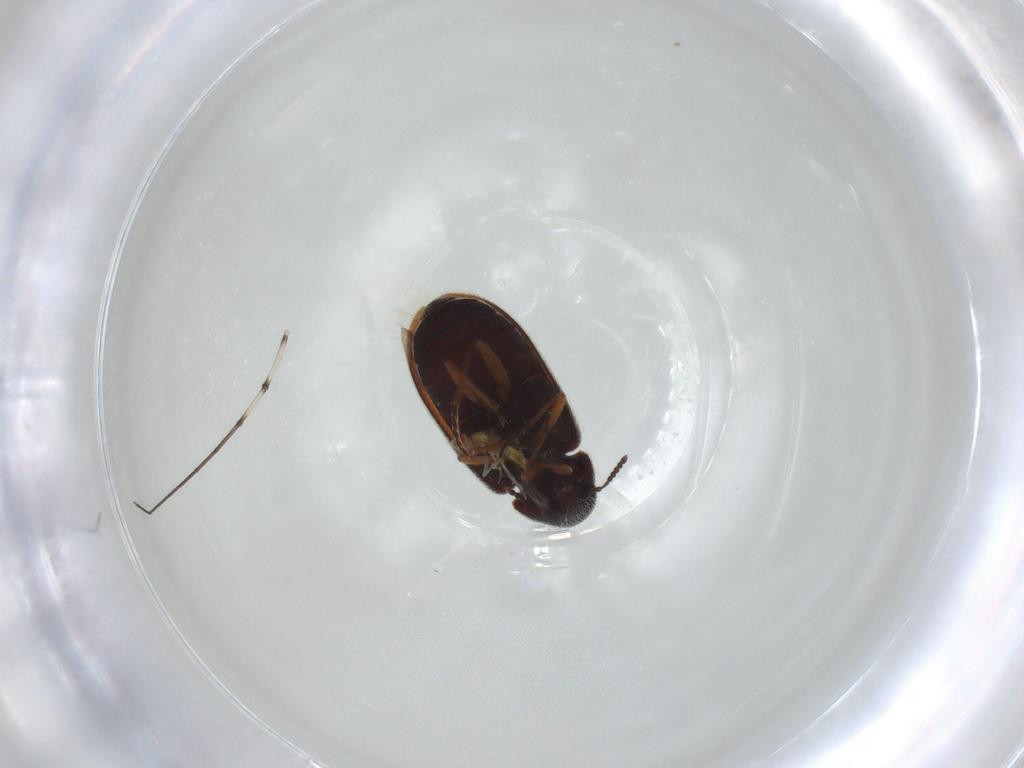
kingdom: Animalia
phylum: Arthropoda
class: Insecta
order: Coleoptera
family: Rhadalidae
